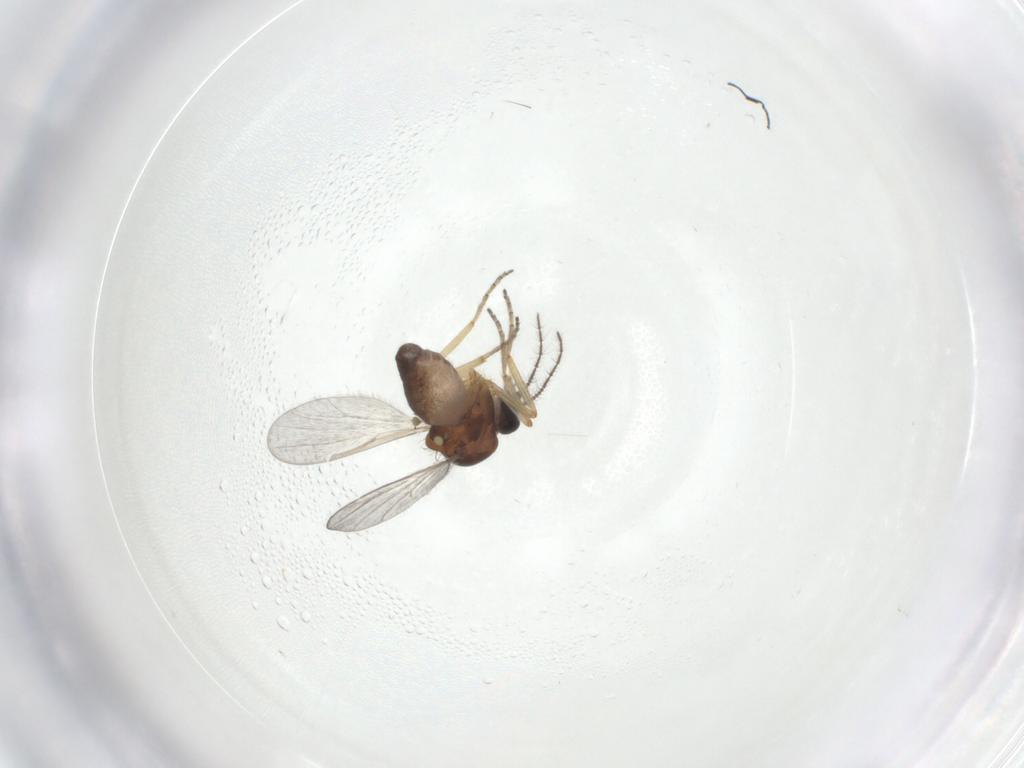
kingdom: Animalia
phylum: Arthropoda
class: Insecta
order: Diptera
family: Ceratopogonidae
